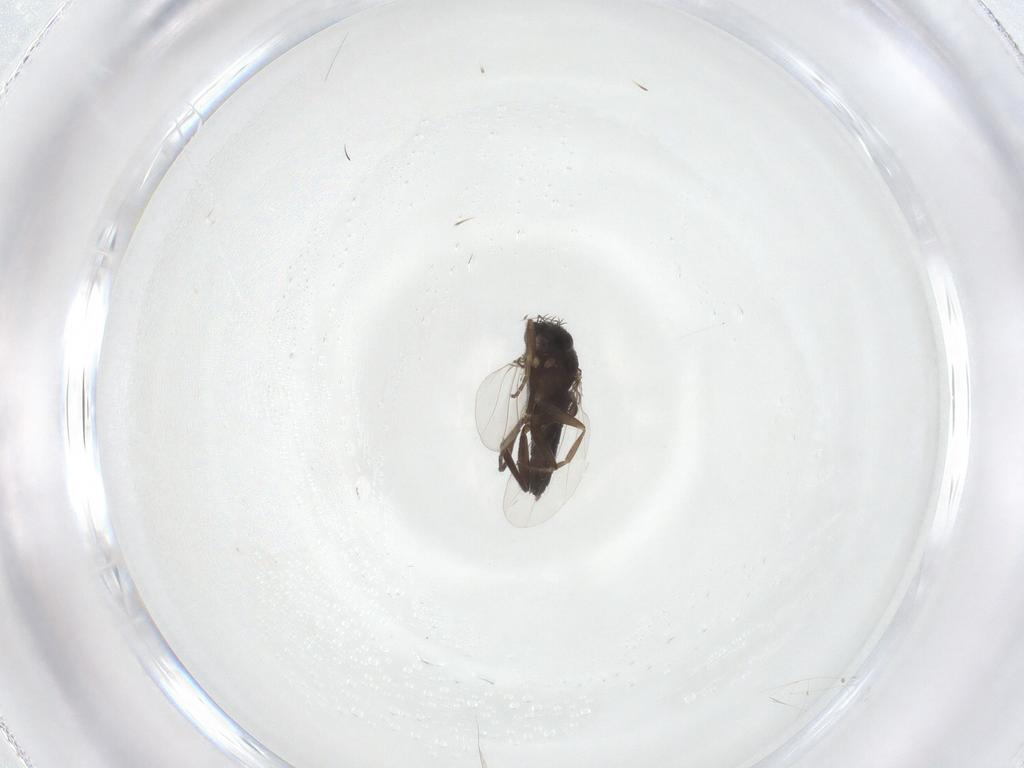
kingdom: Animalia
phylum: Arthropoda
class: Insecta
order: Diptera
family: Phoridae
